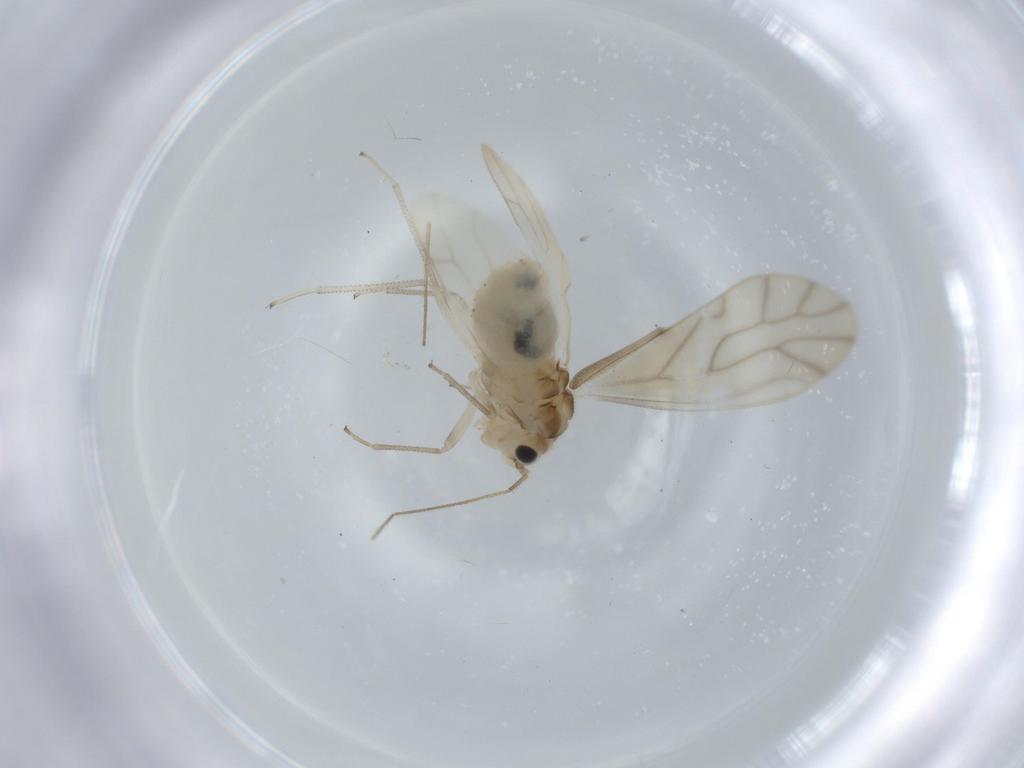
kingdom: Animalia
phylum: Arthropoda
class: Insecta
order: Psocodea
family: Caeciliusidae
